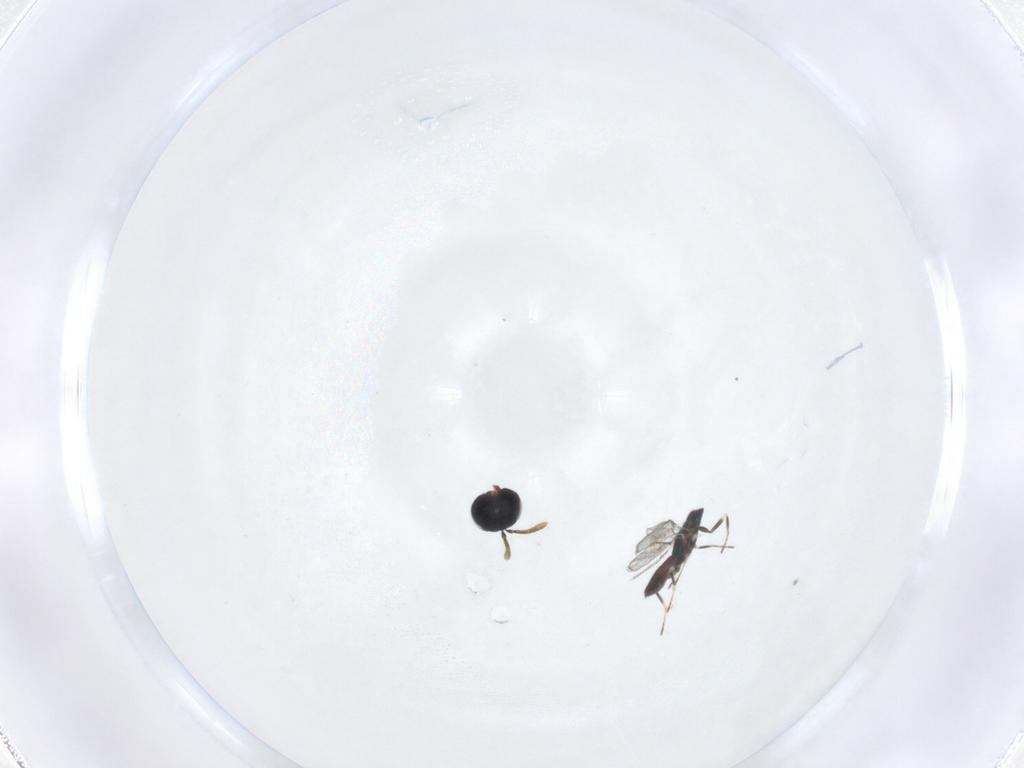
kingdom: Animalia
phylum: Arthropoda
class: Insecta
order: Hymenoptera
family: Pteromalidae
